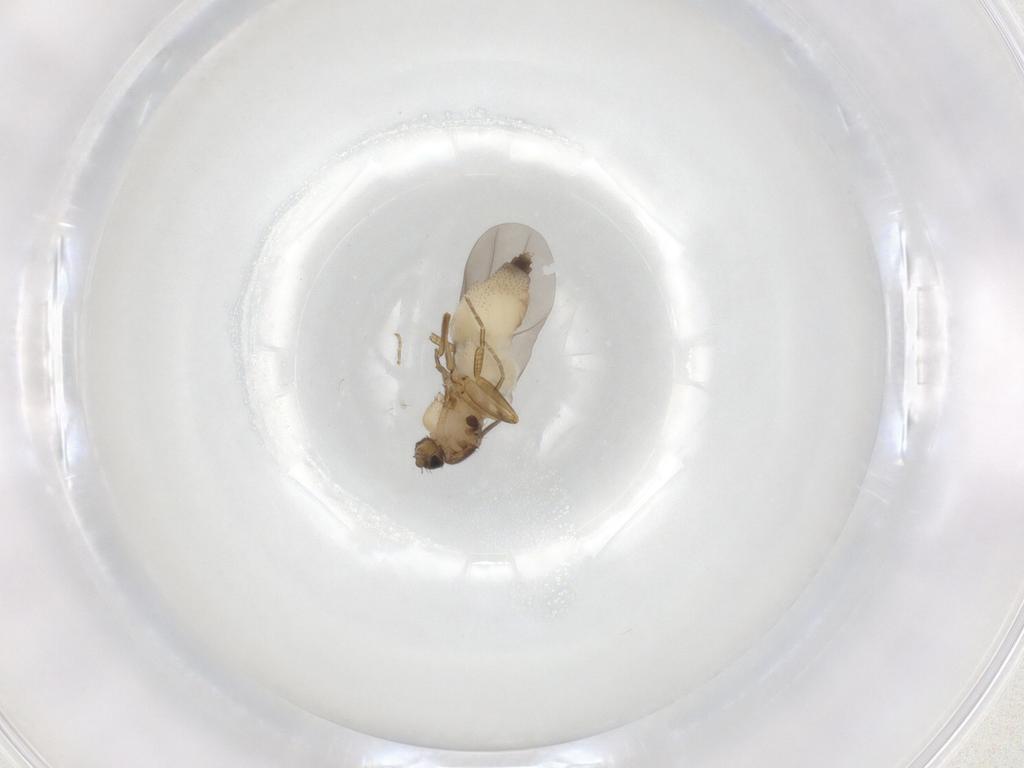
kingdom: Animalia
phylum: Arthropoda
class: Insecta
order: Diptera
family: Phoridae
